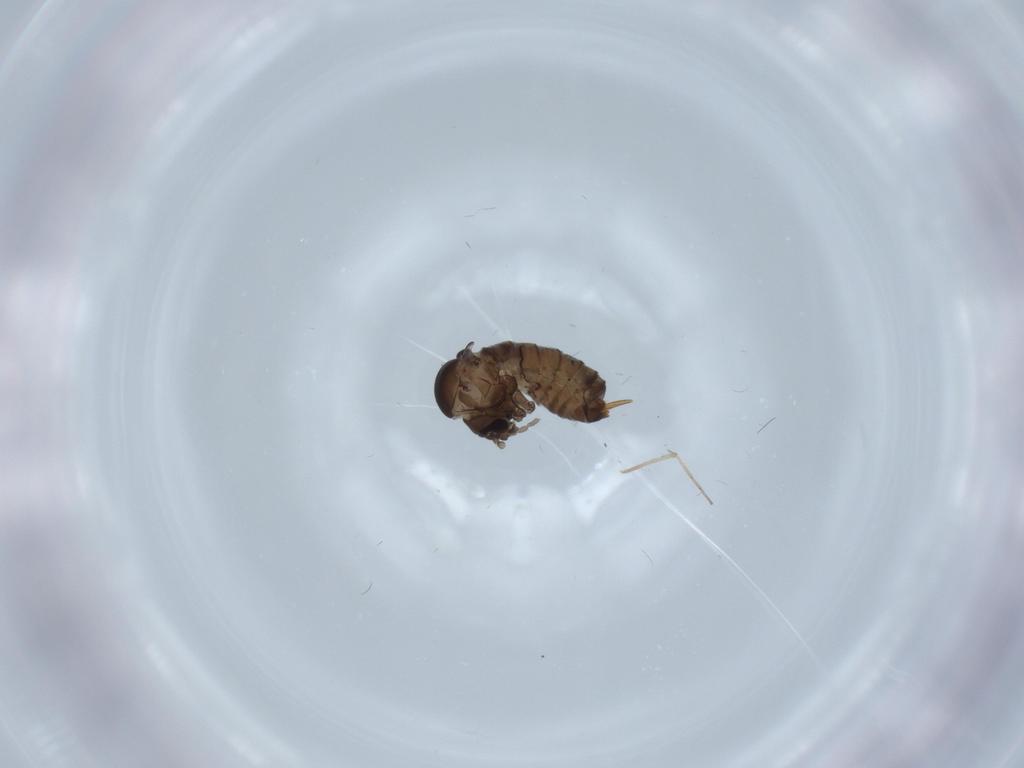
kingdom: Animalia
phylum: Arthropoda
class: Insecta
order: Diptera
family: Psychodidae
